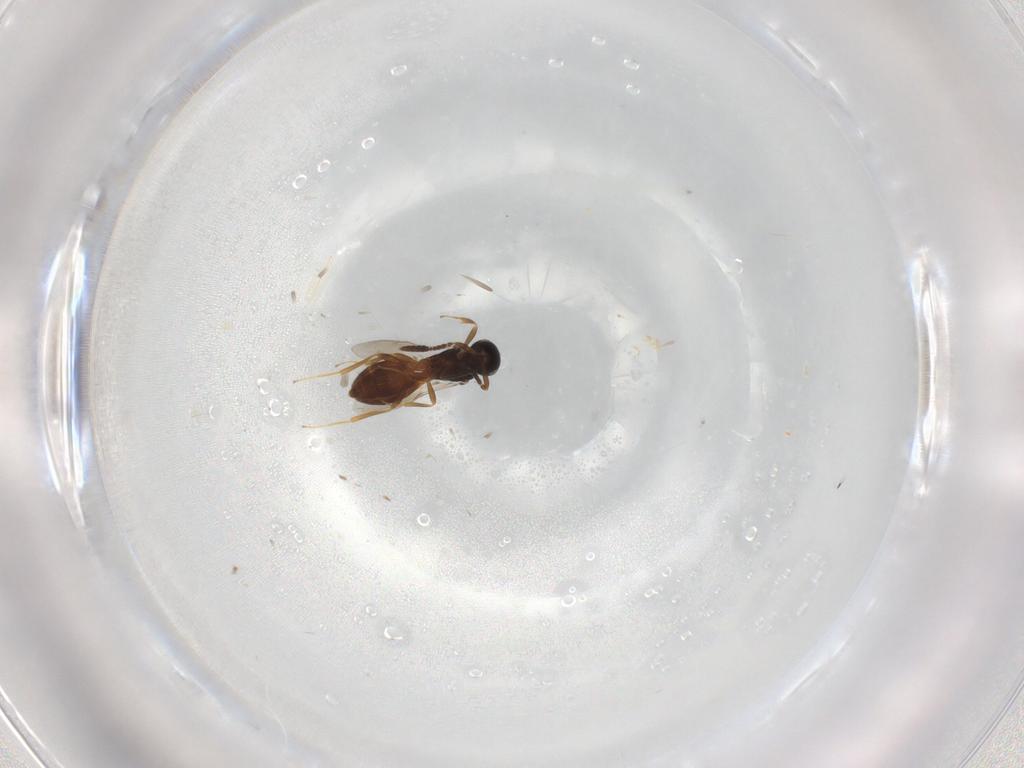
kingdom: Animalia
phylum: Arthropoda
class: Insecta
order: Hymenoptera
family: Scelionidae
